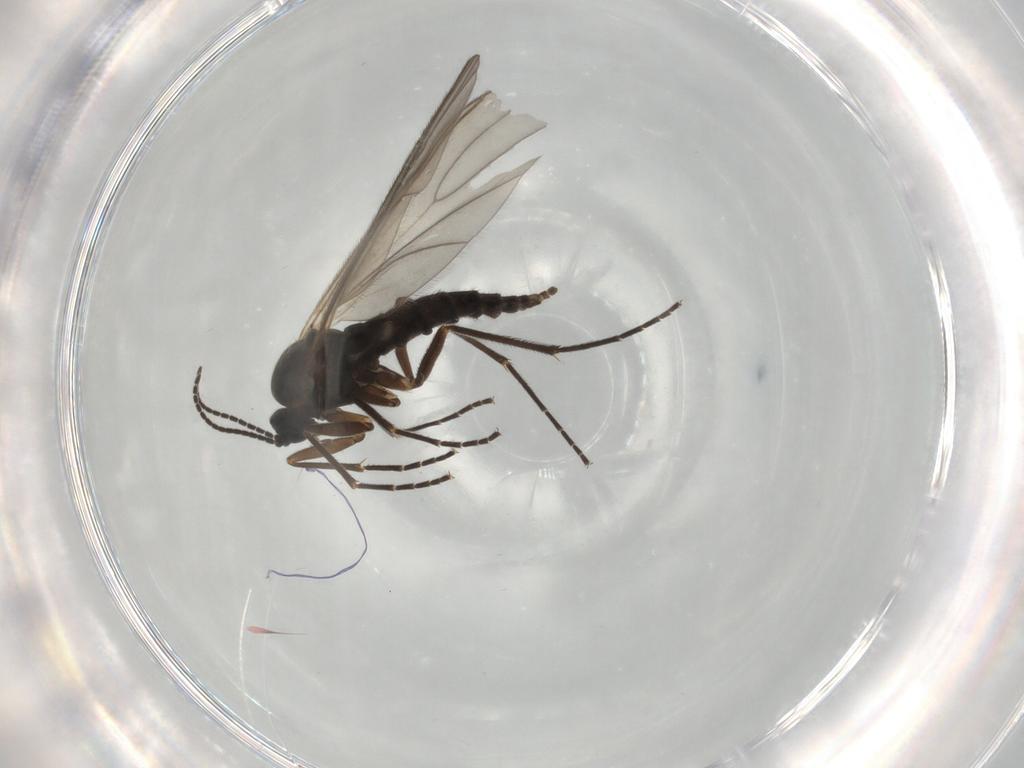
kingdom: Animalia
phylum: Arthropoda
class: Insecta
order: Diptera
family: Sciaridae
